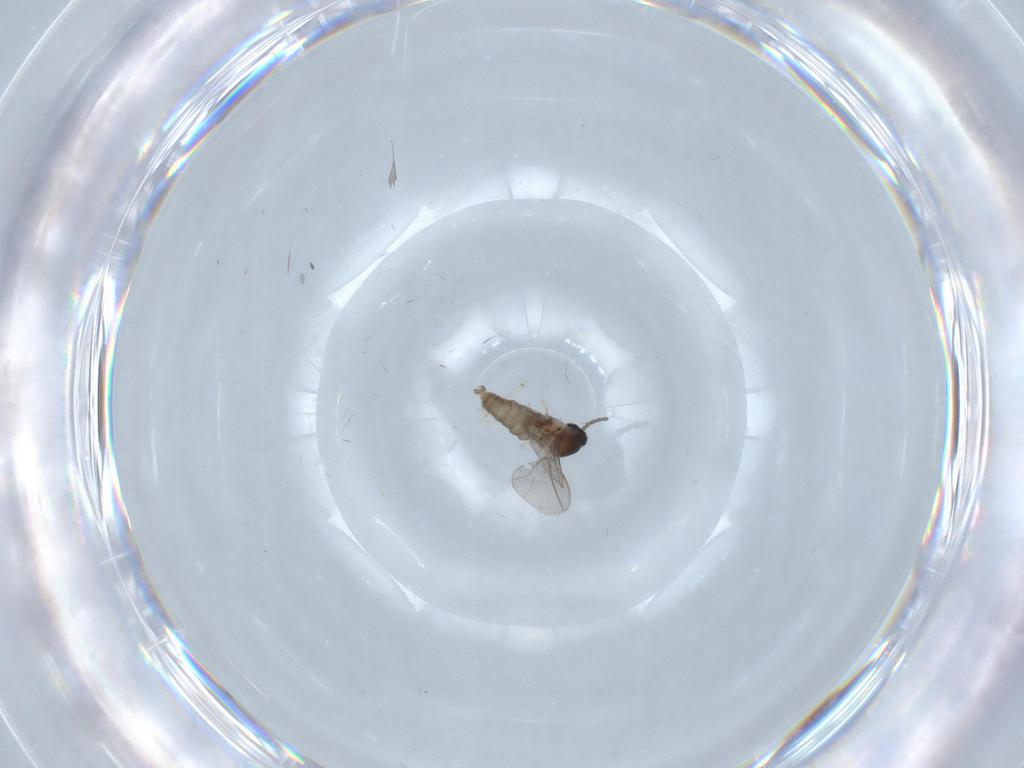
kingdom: Animalia
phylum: Arthropoda
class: Insecta
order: Diptera
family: Cecidomyiidae
